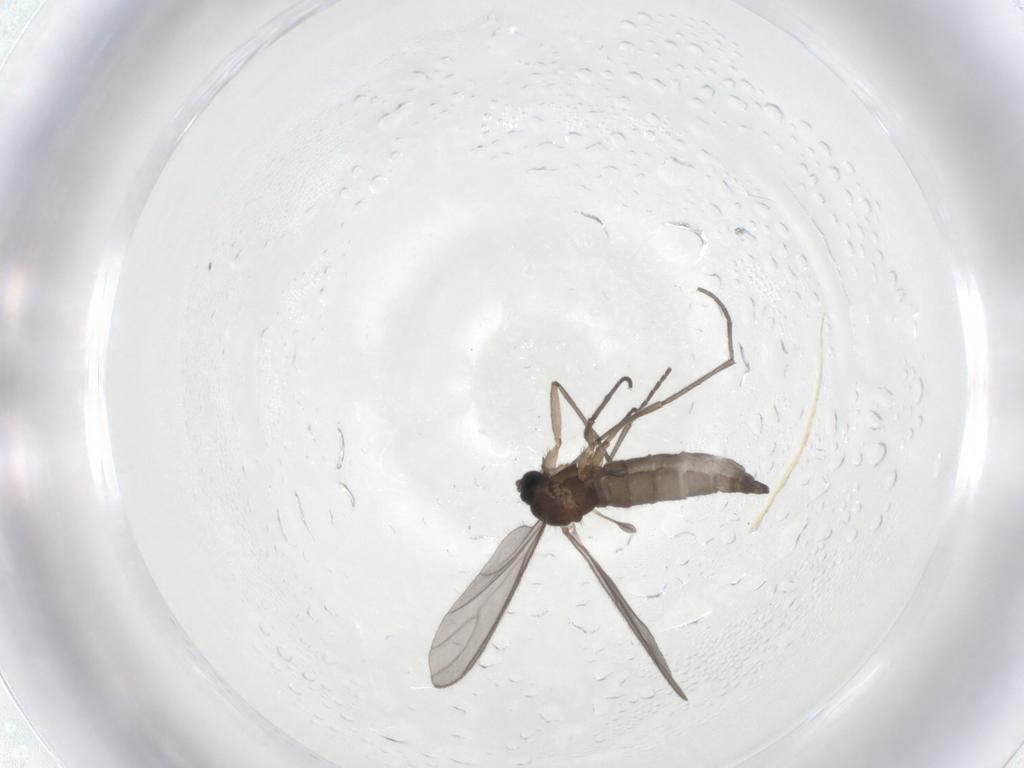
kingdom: Animalia
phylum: Arthropoda
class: Insecta
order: Diptera
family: Sciaridae
